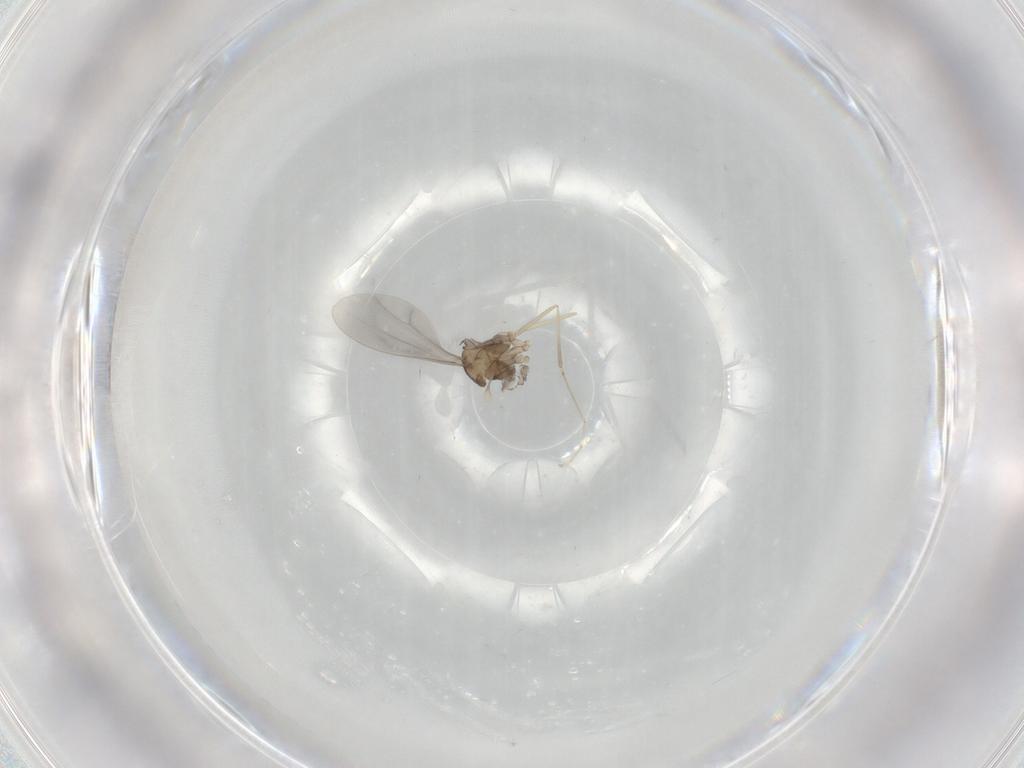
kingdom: Animalia
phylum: Arthropoda
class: Insecta
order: Diptera
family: Cecidomyiidae
